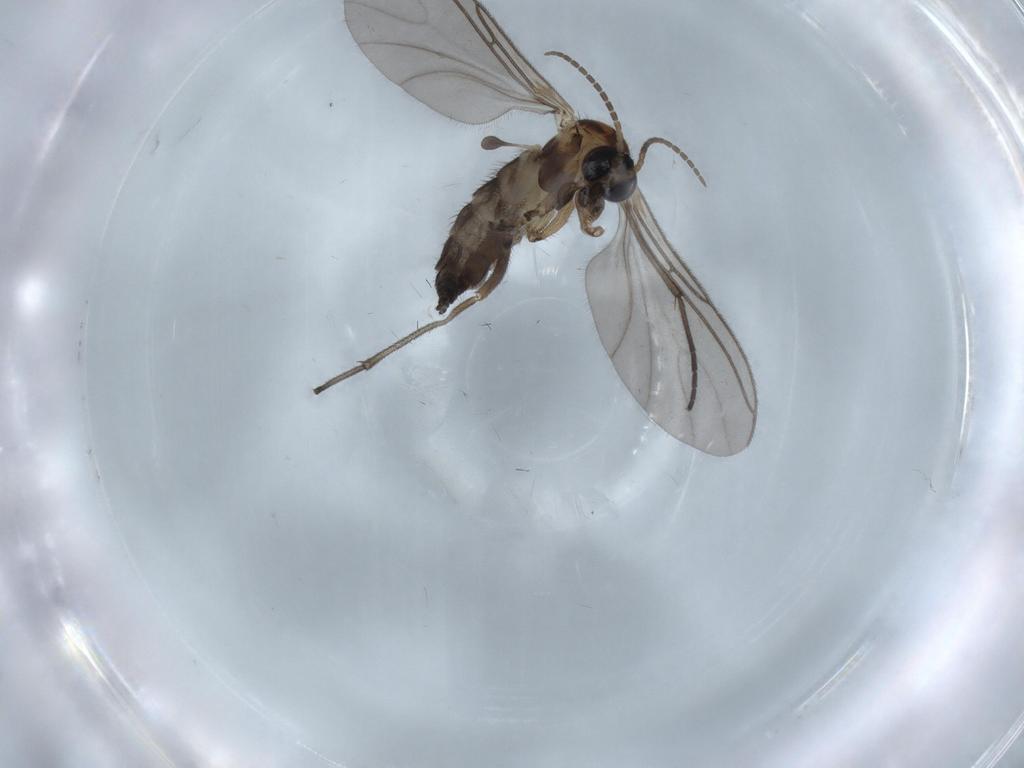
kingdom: Animalia
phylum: Arthropoda
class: Insecta
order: Diptera
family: Sciaridae
